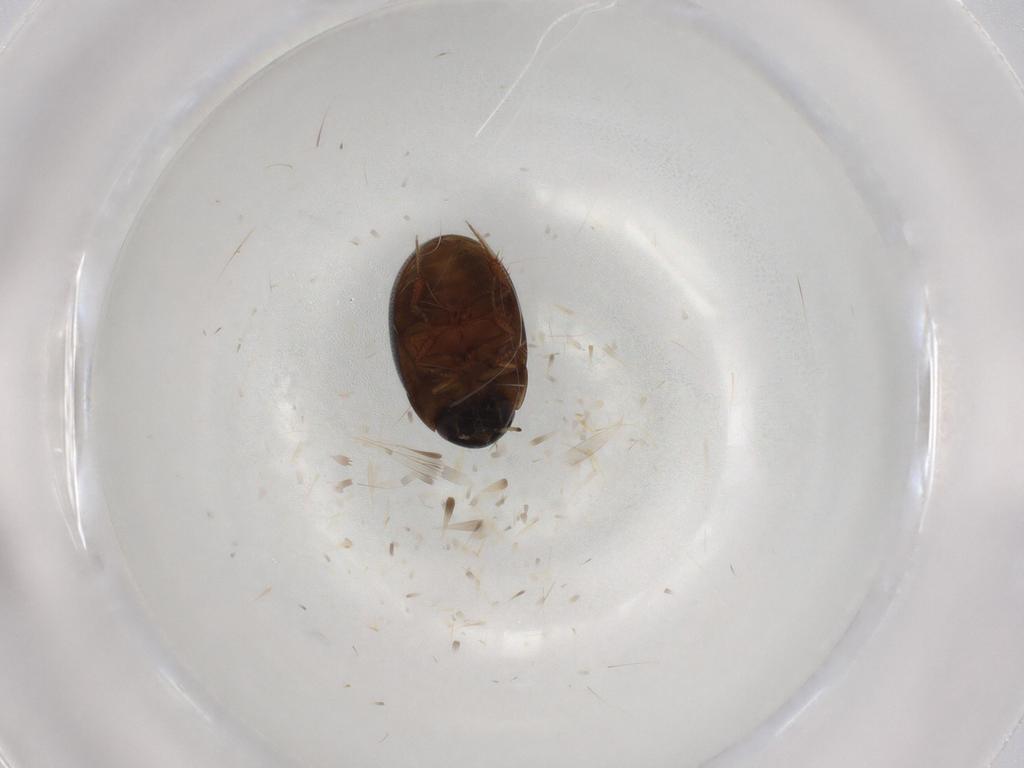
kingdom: Animalia
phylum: Arthropoda
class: Insecta
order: Coleoptera
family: Hydrophilidae
